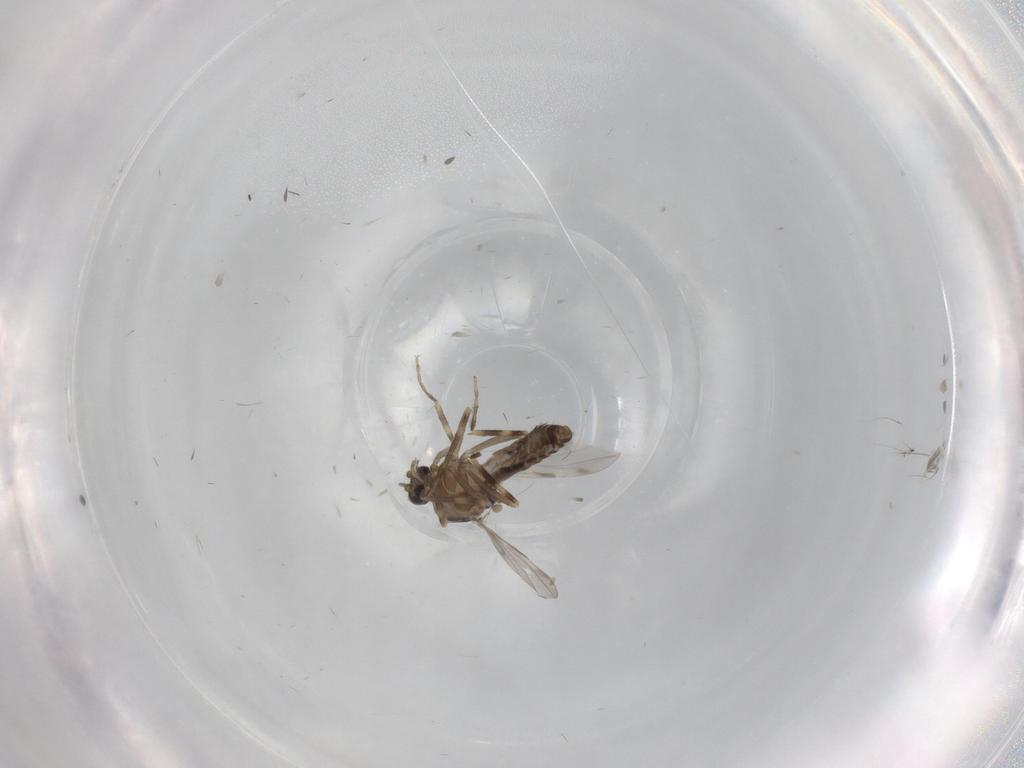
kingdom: Animalia
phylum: Arthropoda
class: Insecta
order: Diptera
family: Ceratopogonidae
